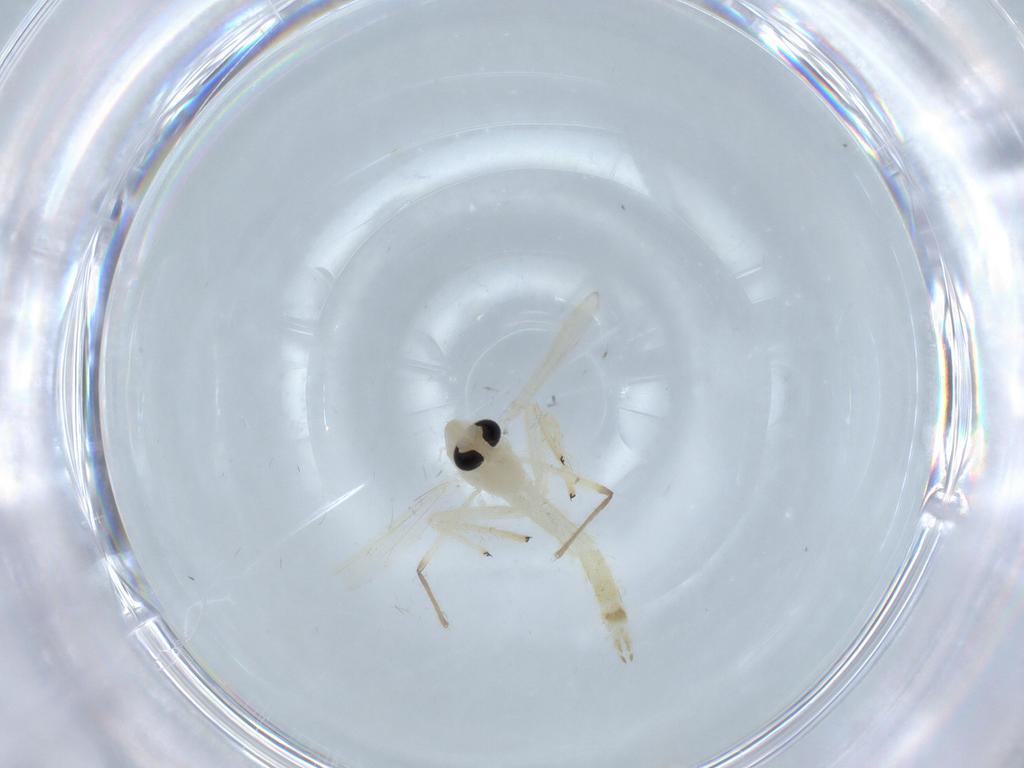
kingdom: Animalia
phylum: Arthropoda
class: Insecta
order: Diptera
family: Chironomidae
